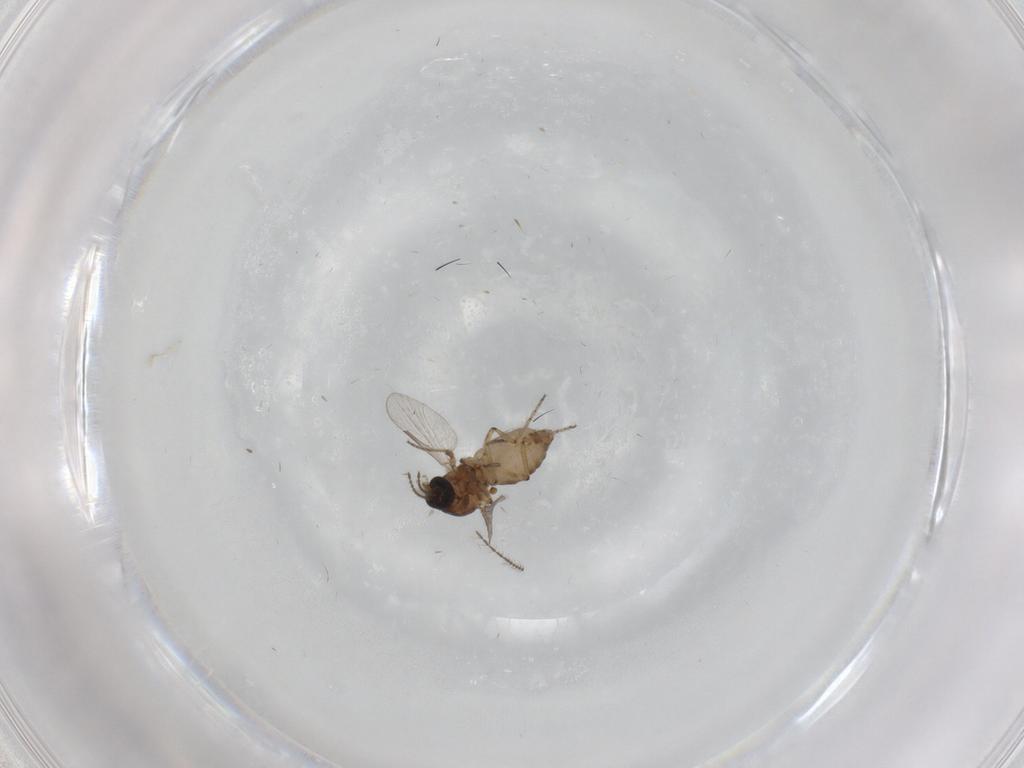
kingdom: Animalia
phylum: Arthropoda
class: Insecta
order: Diptera
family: Ceratopogonidae
